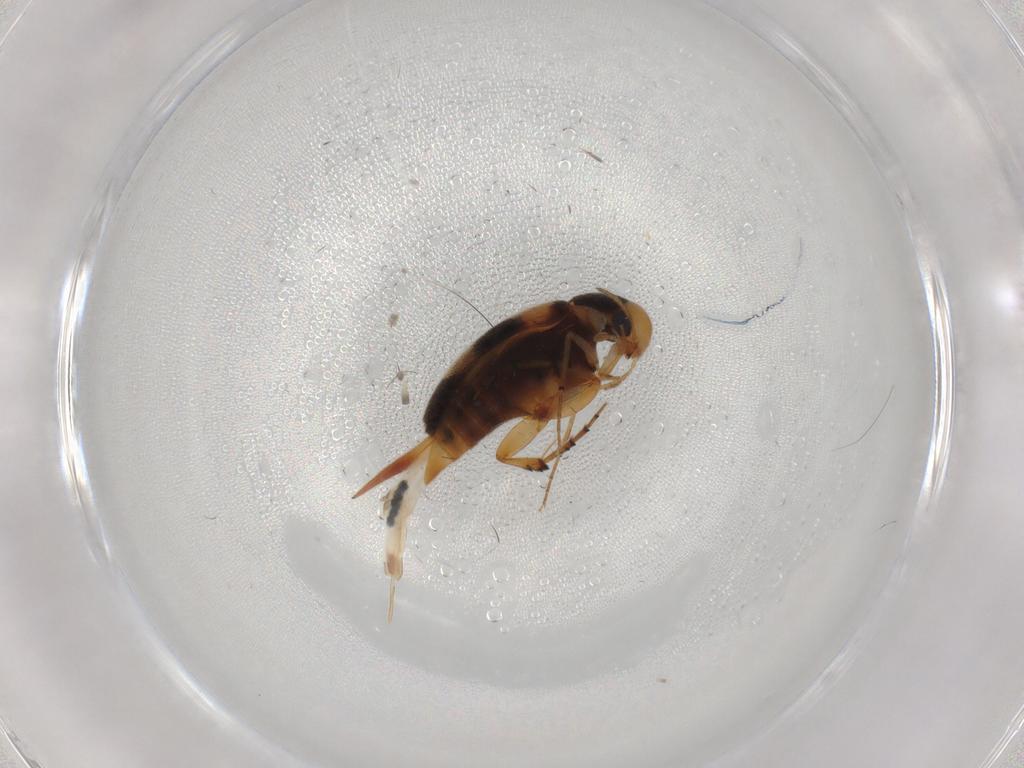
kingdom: Animalia
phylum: Arthropoda
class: Insecta
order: Coleoptera
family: Mordellidae
